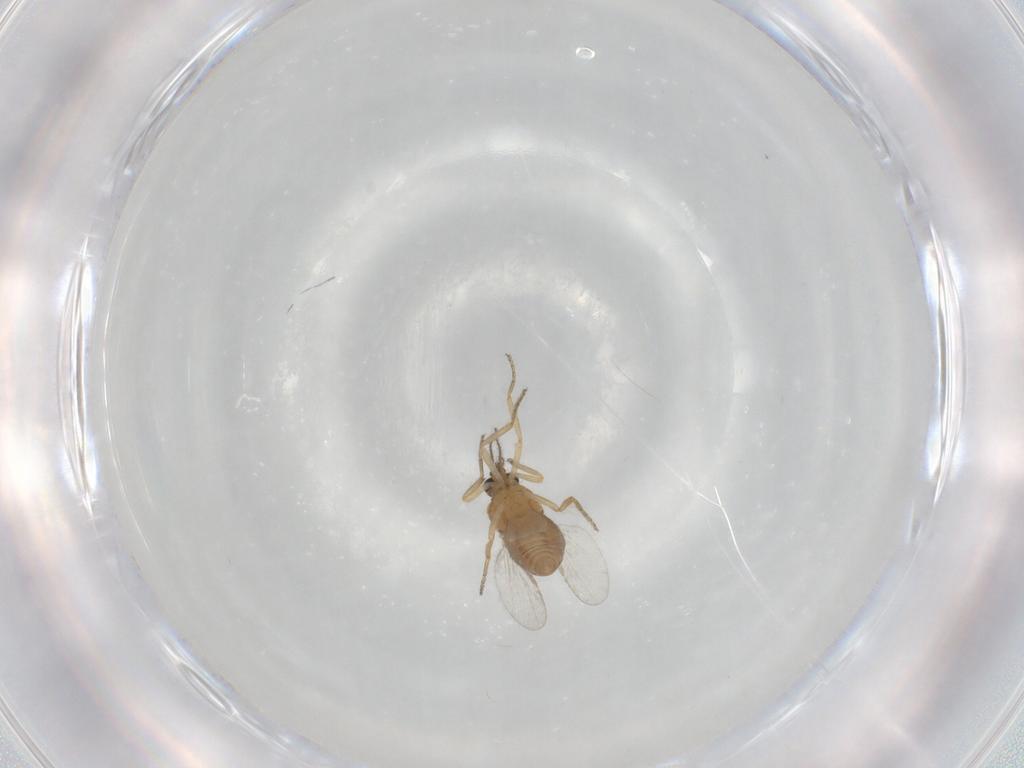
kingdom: Animalia
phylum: Arthropoda
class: Insecta
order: Diptera
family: Ceratopogonidae
